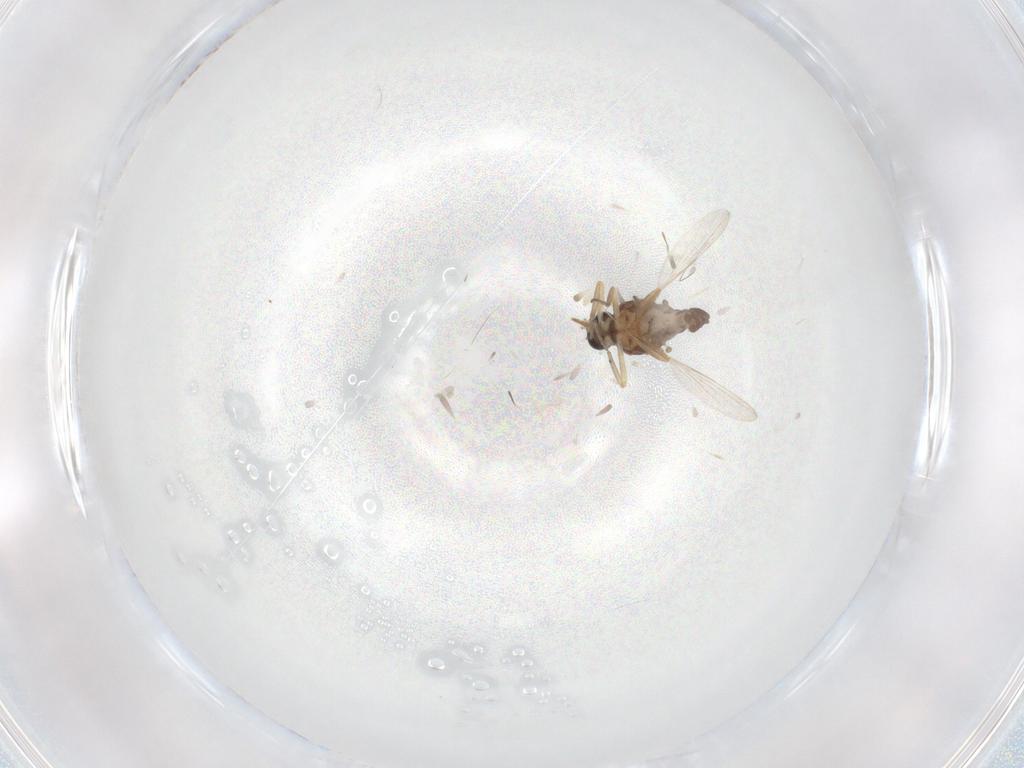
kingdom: Animalia
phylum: Arthropoda
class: Insecta
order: Diptera
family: Ceratopogonidae
